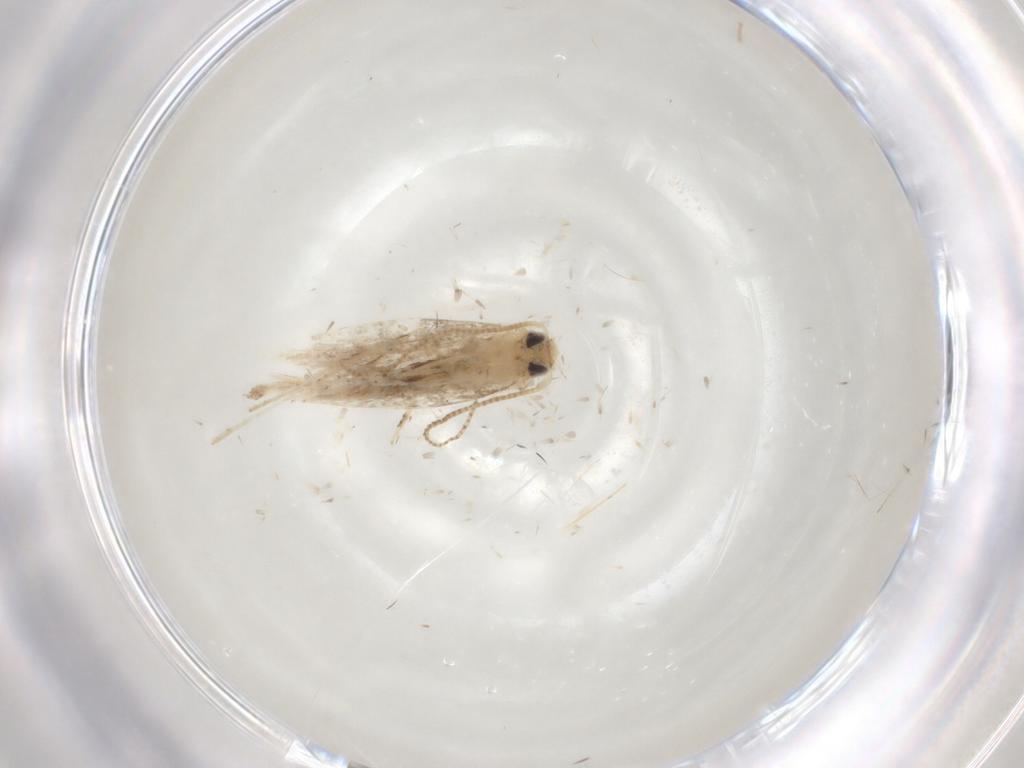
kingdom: Animalia
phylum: Arthropoda
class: Insecta
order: Lepidoptera
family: Gracillariidae
